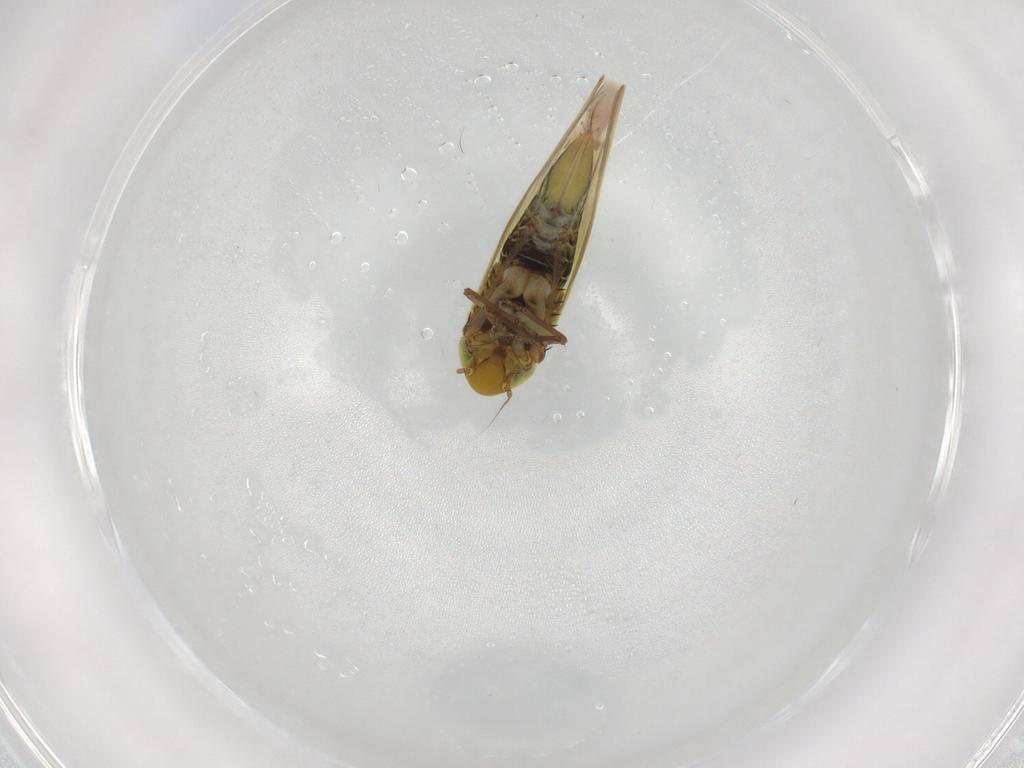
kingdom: Animalia
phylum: Arthropoda
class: Insecta
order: Hemiptera
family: Cicadellidae
